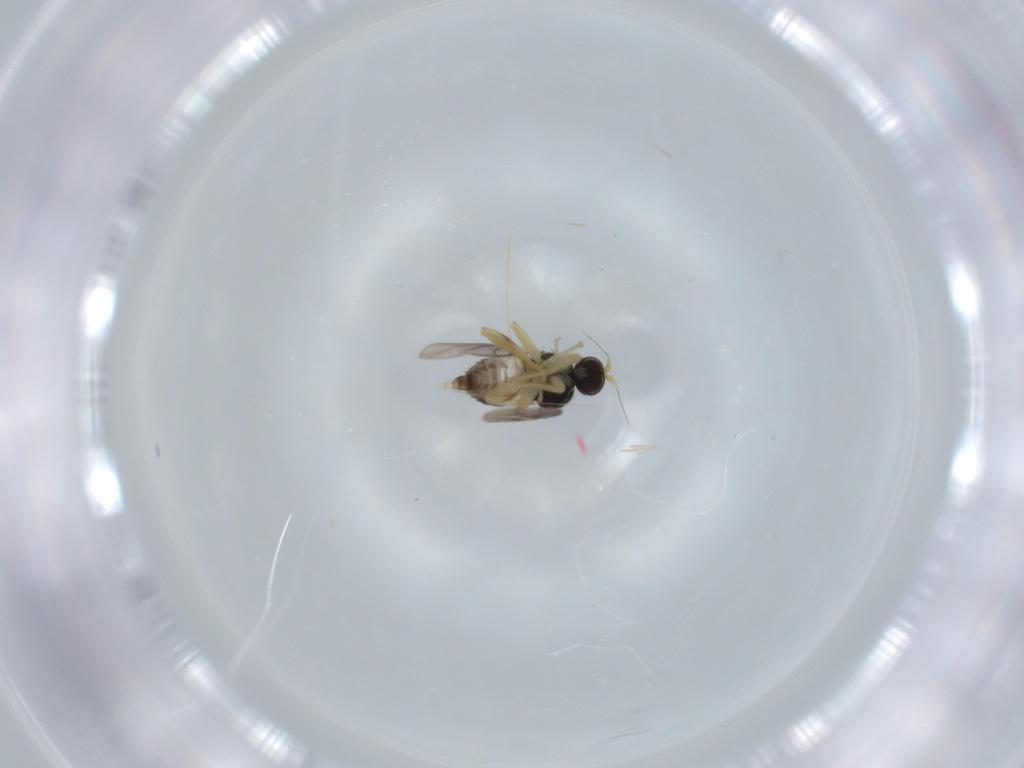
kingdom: Animalia
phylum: Arthropoda
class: Insecta
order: Diptera
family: Hybotidae
